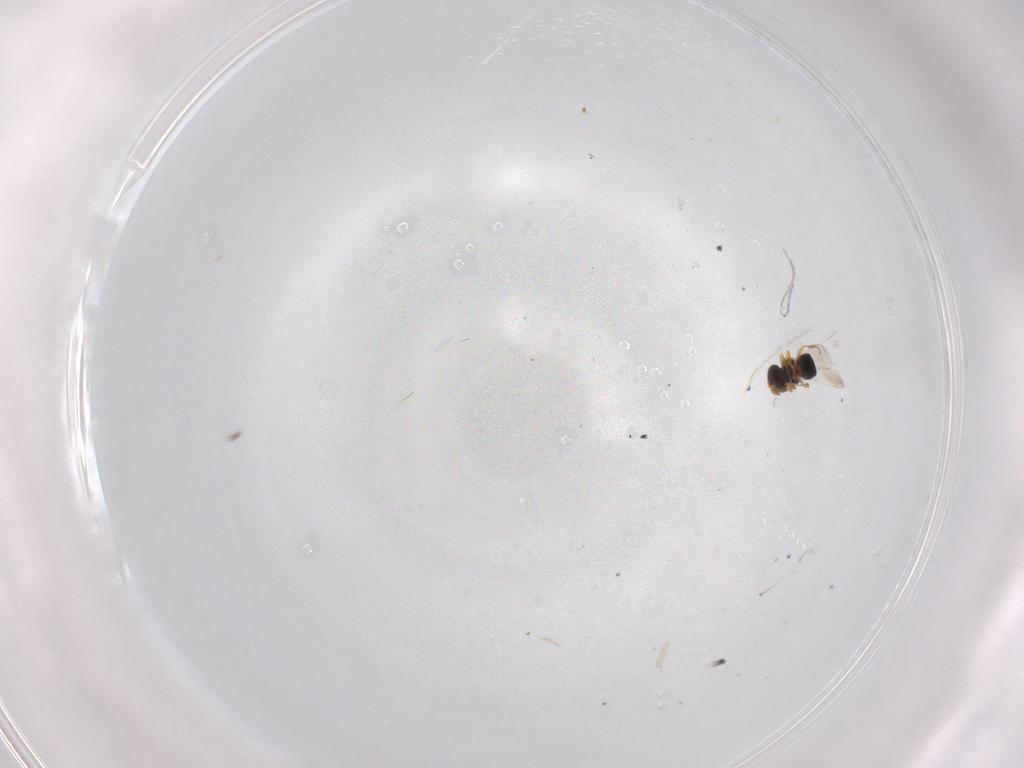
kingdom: Animalia
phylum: Arthropoda
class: Insecta
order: Hymenoptera
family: Platygastridae
